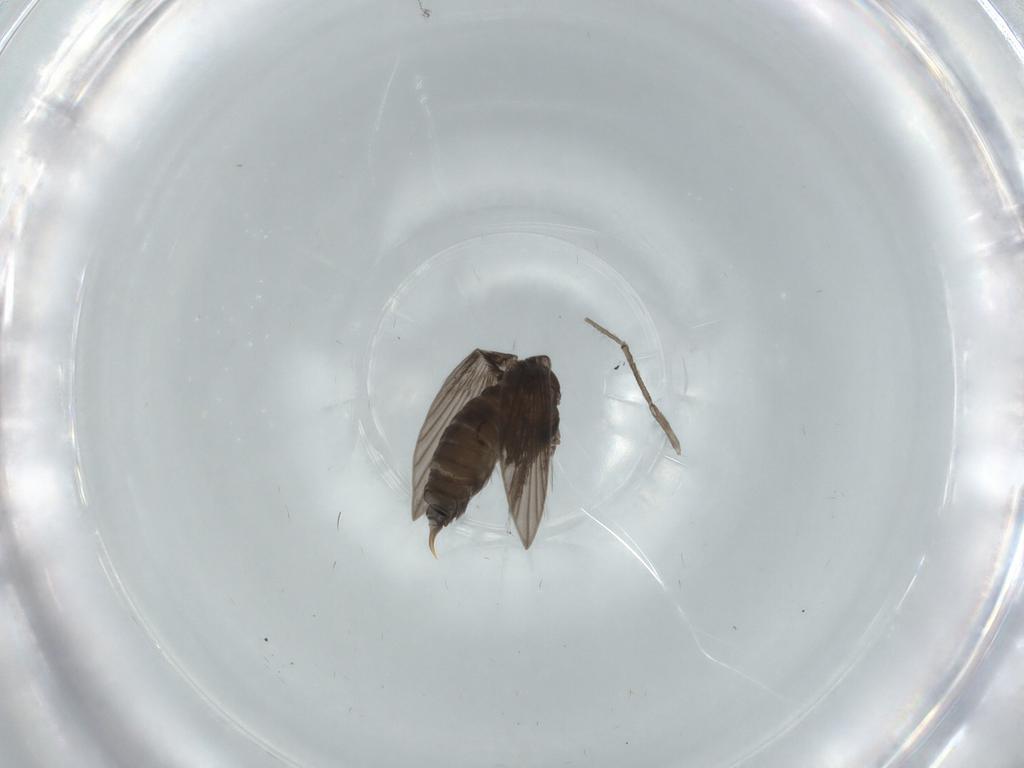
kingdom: Animalia
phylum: Arthropoda
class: Insecta
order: Diptera
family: Psychodidae
